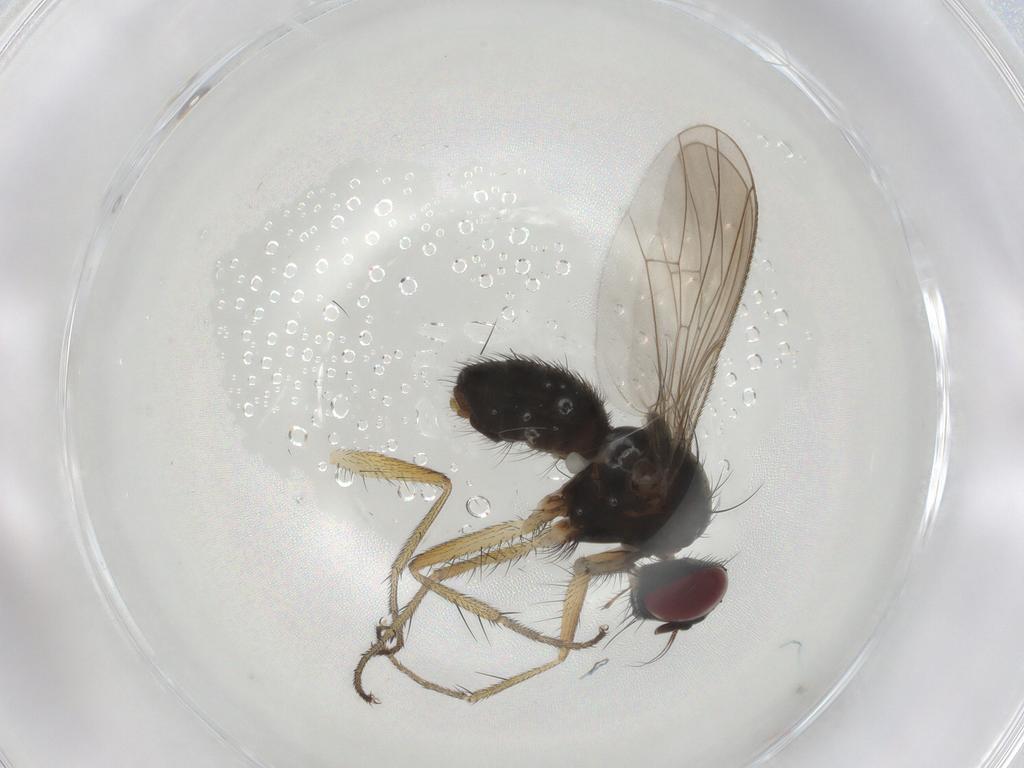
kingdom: Animalia
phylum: Arthropoda
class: Insecta
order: Diptera
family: Muscidae
